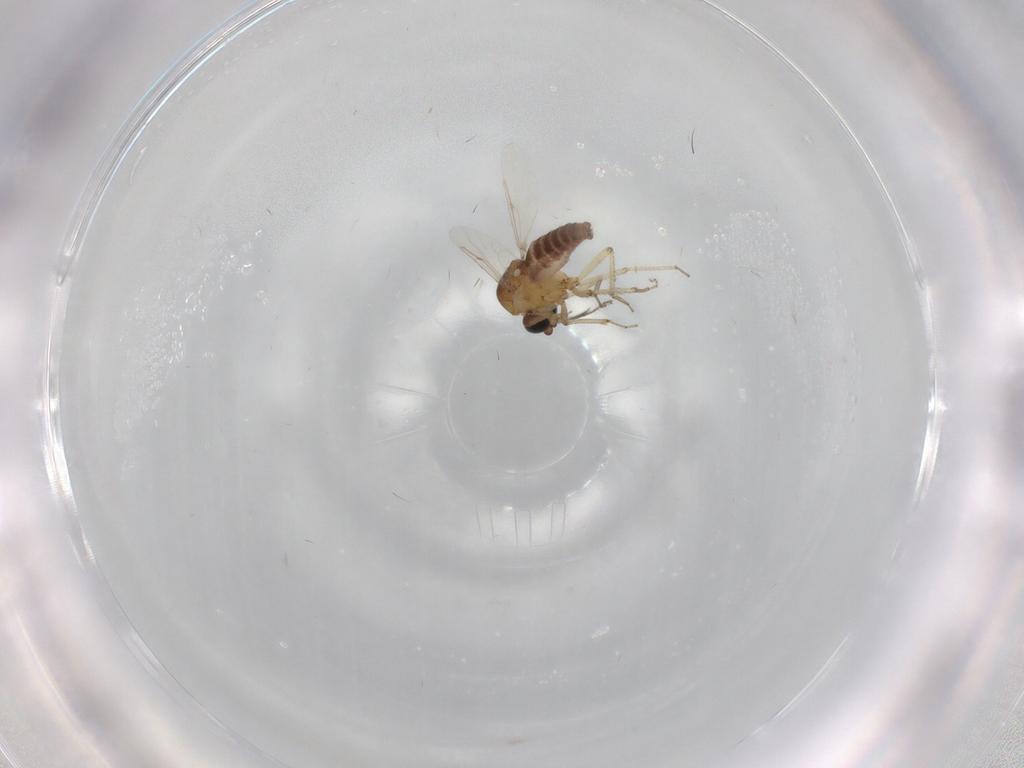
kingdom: Animalia
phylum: Arthropoda
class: Insecta
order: Diptera
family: Ceratopogonidae
